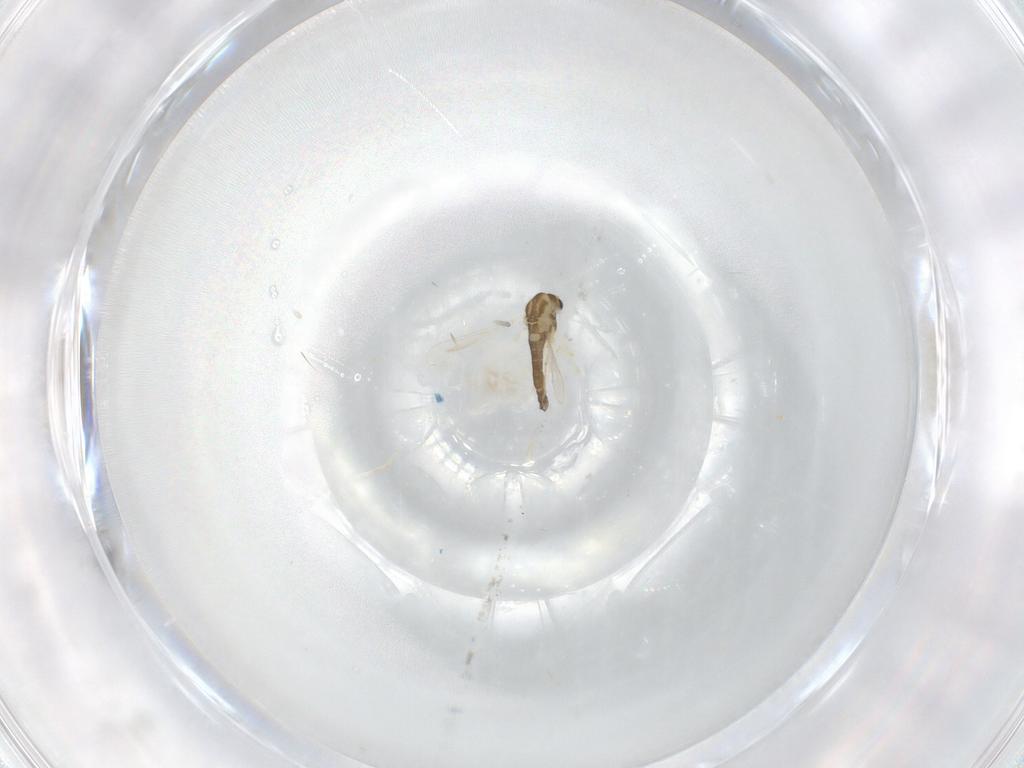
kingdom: Animalia
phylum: Arthropoda
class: Insecta
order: Diptera
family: Chironomidae
